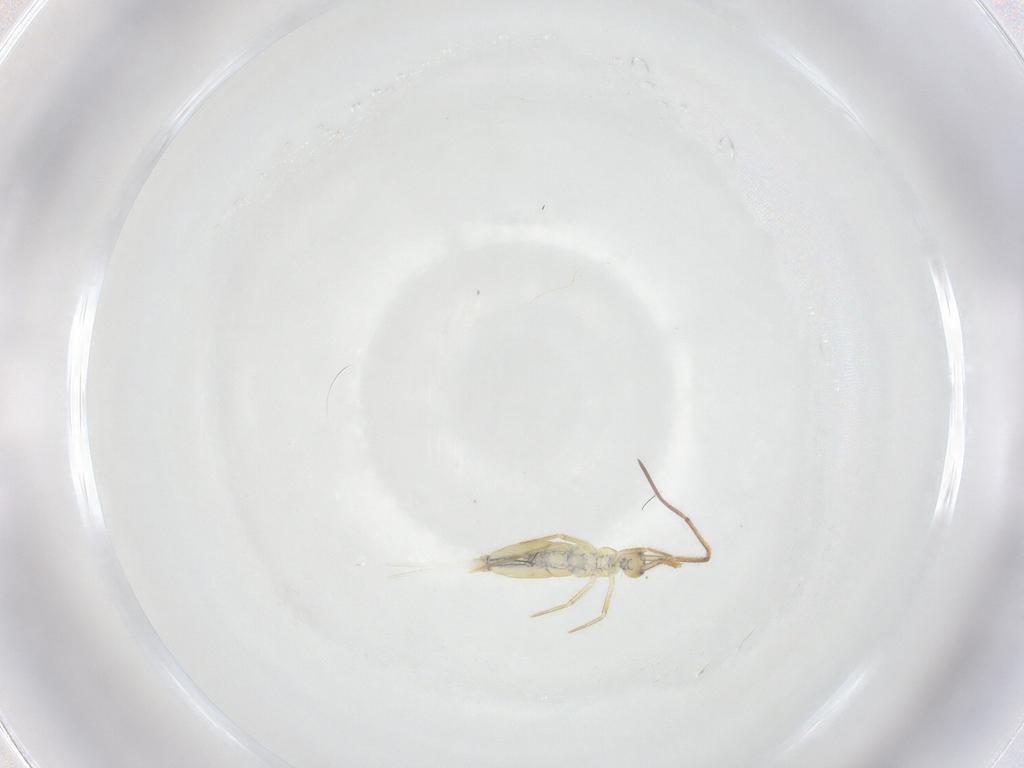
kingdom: Animalia
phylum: Arthropoda
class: Collembola
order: Entomobryomorpha
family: Entomobryidae
